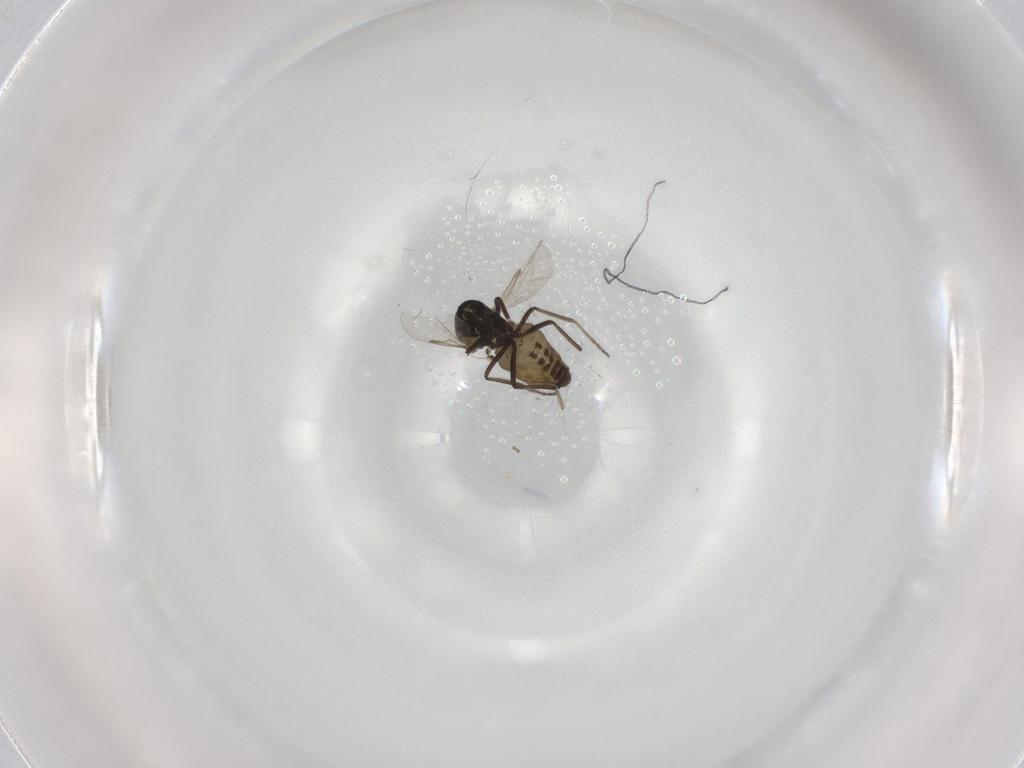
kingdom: Animalia
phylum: Arthropoda
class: Insecta
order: Diptera
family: Ceratopogonidae
